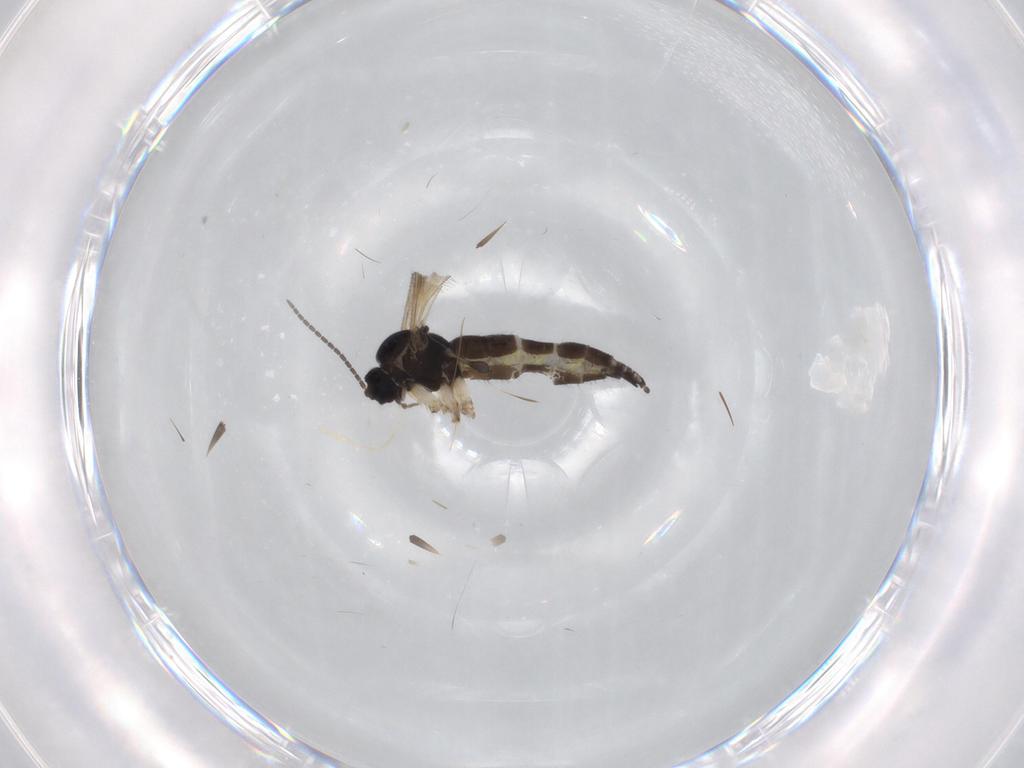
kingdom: Animalia
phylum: Arthropoda
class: Insecta
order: Diptera
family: Sciaridae
